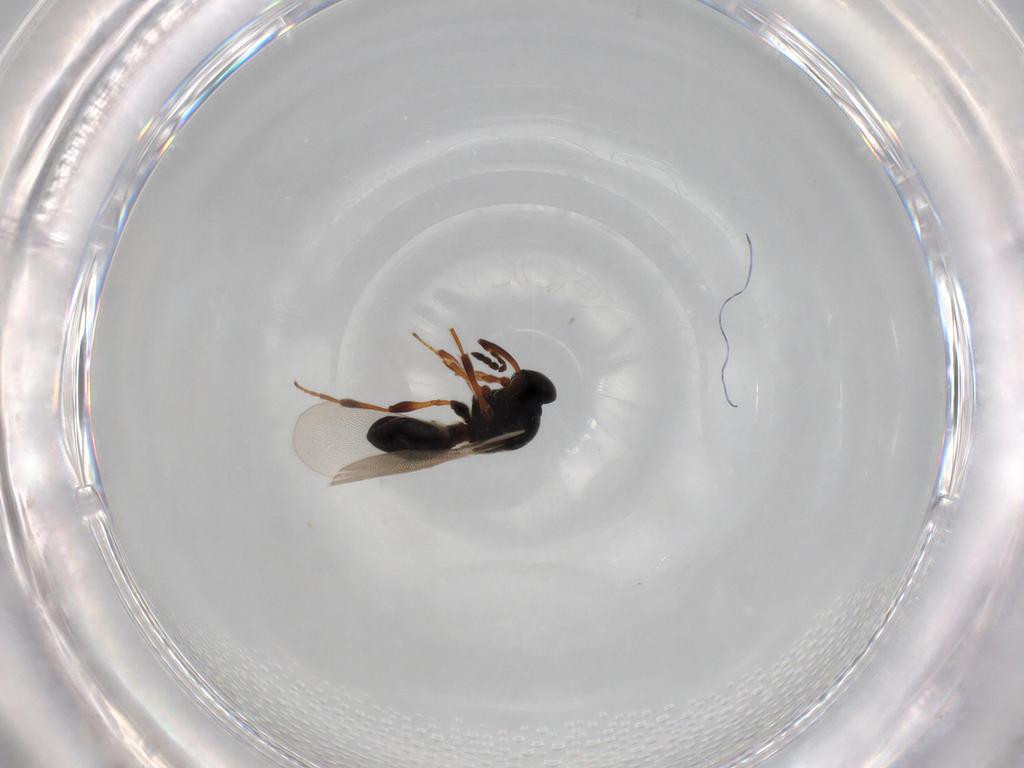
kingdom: Animalia
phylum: Arthropoda
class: Insecta
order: Hymenoptera
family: Platygastridae
